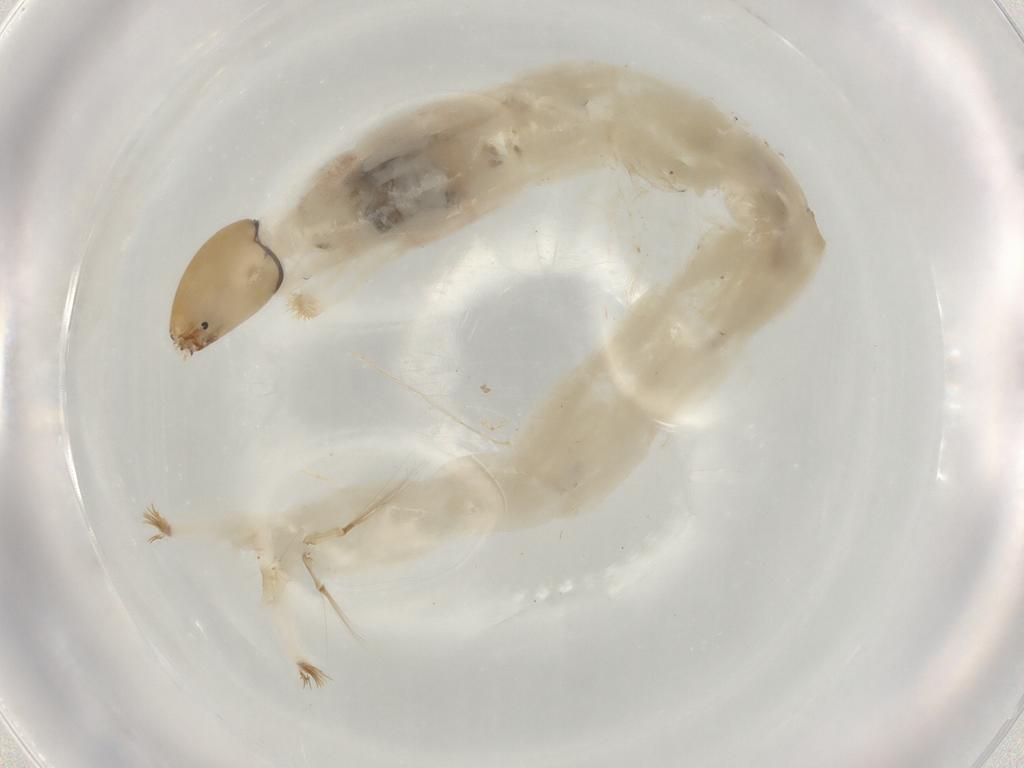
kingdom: Animalia
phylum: Arthropoda
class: Insecta
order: Diptera
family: Chironomidae
